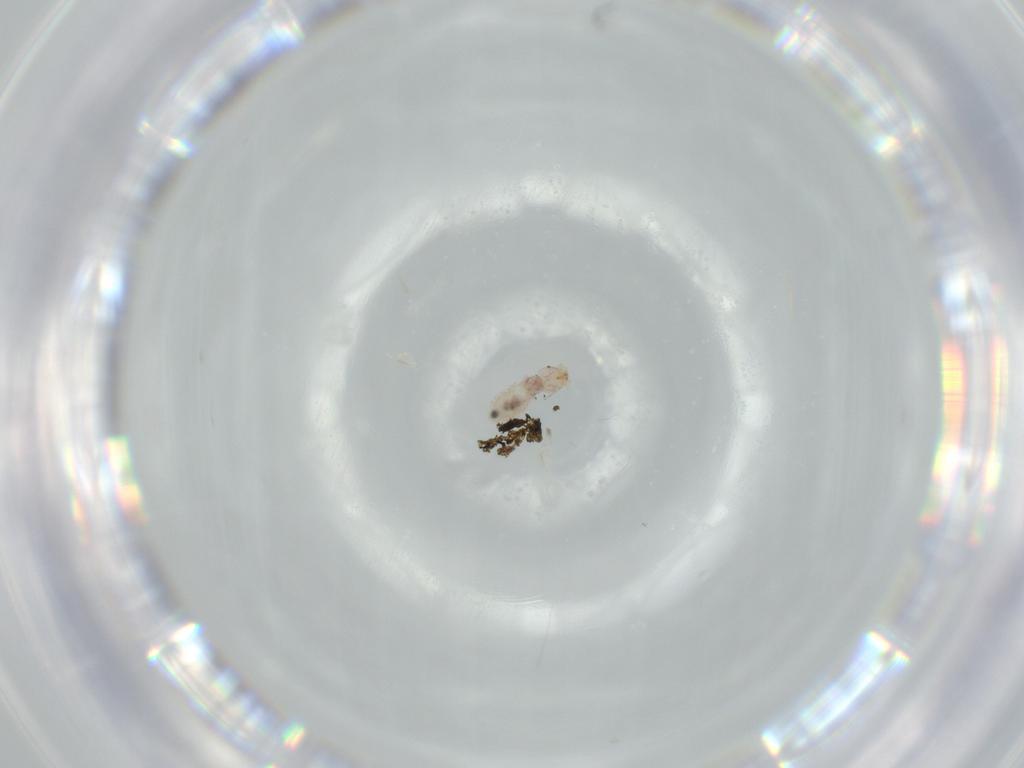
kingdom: Animalia
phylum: Arthropoda
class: Insecta
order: Psocodea
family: Liposcelididae
